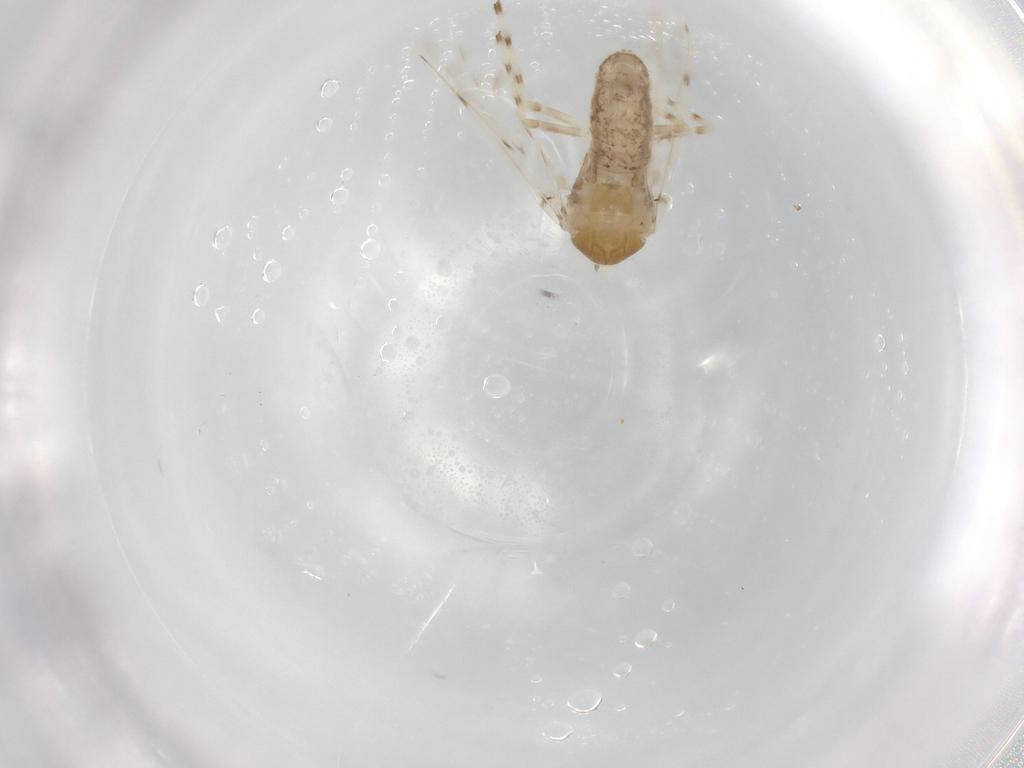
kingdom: Animalia
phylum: Arthropoda
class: Insecta
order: Diptera
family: Chironomidae
